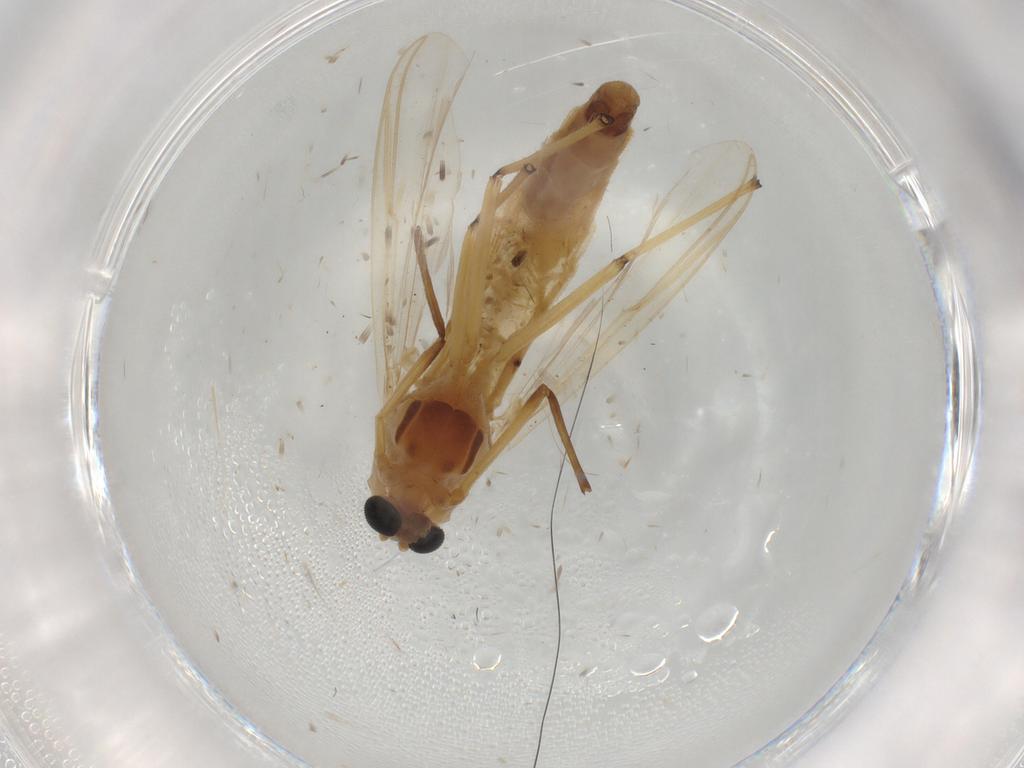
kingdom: Animalia
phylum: Arthropoda
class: Insecta
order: Diptera
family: Chironomidae
